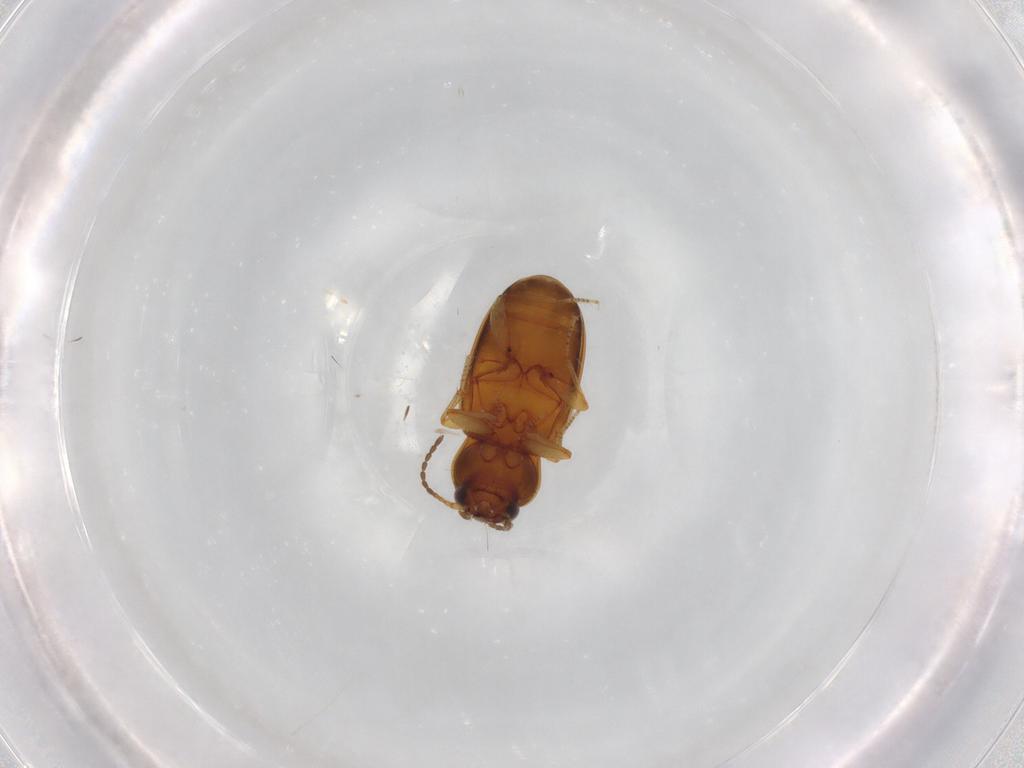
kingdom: Animalia
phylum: Arthropoda
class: Insecta
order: Coleoptera
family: Carabidae
